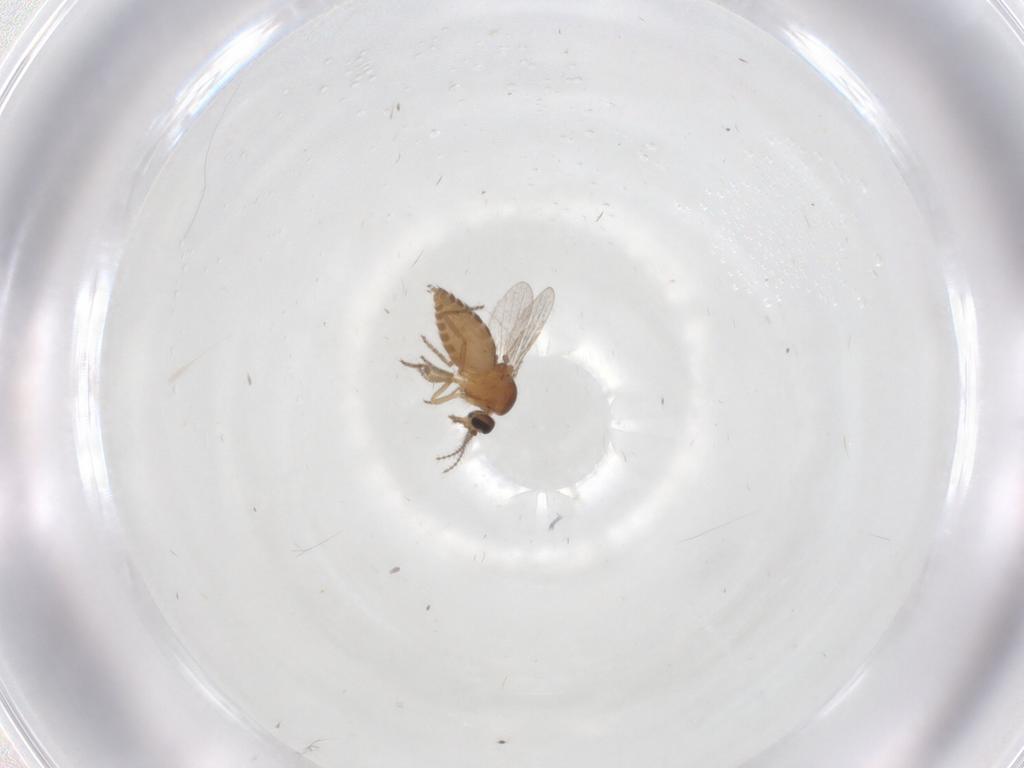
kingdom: Animalia
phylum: Arthropoda
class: Insecta
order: Diptera
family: Ceratopogonidae
